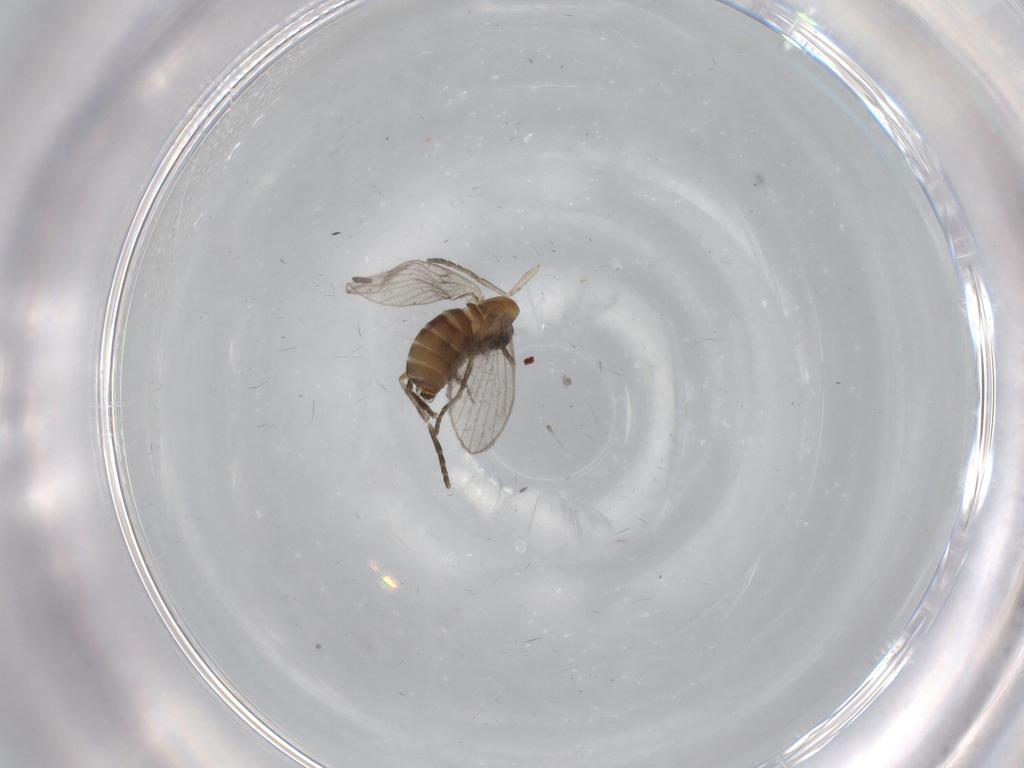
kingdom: Animalia
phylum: Arthropoda
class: Insecta
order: Diptera
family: Psychodidae
